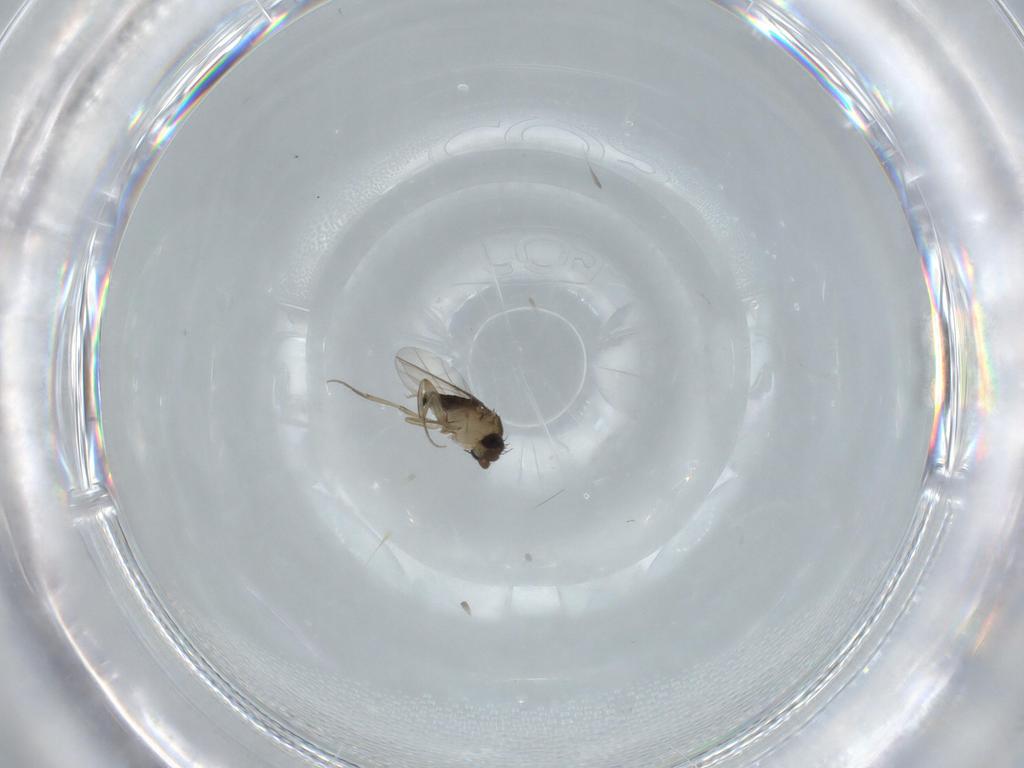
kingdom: Animalia
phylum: Arthropoda
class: Insecta
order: Diptera
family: Phoridae
